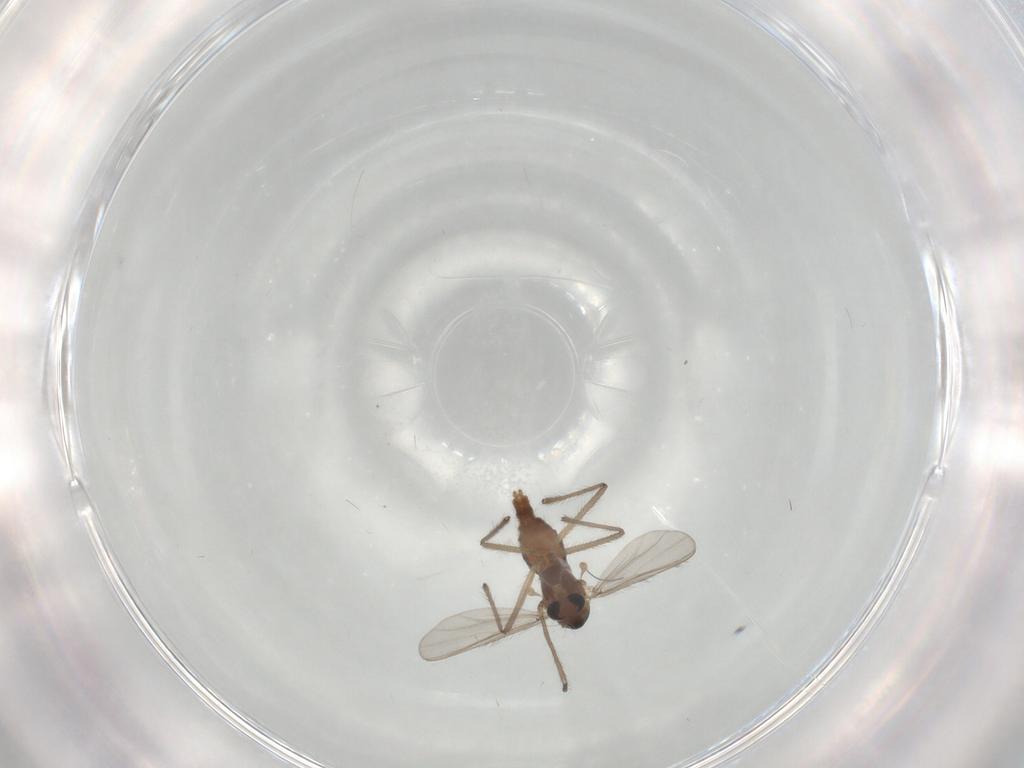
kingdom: Animalia
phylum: Arthropoda
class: Insecta
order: Diptera
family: Chironomidae
